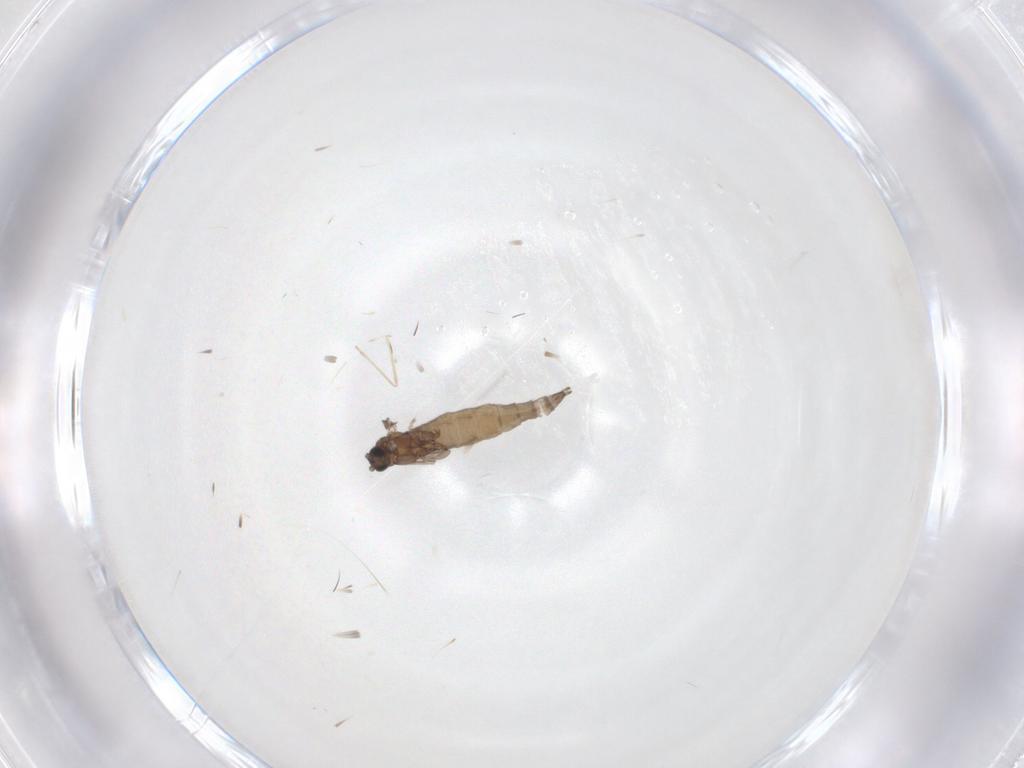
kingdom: Animalia
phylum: Arthropoda
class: Insecta
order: Diptera
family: Sciaridae
